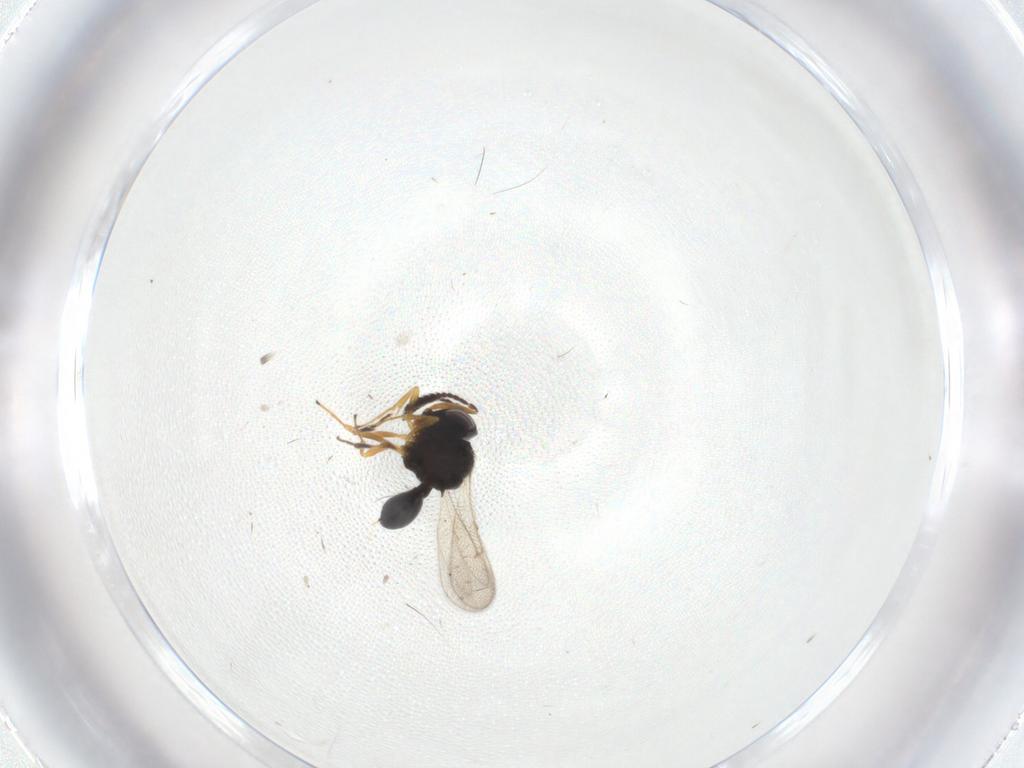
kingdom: Animalia
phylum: Arthropoda
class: Insecta
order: Hymenoptera
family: Scelionidae
